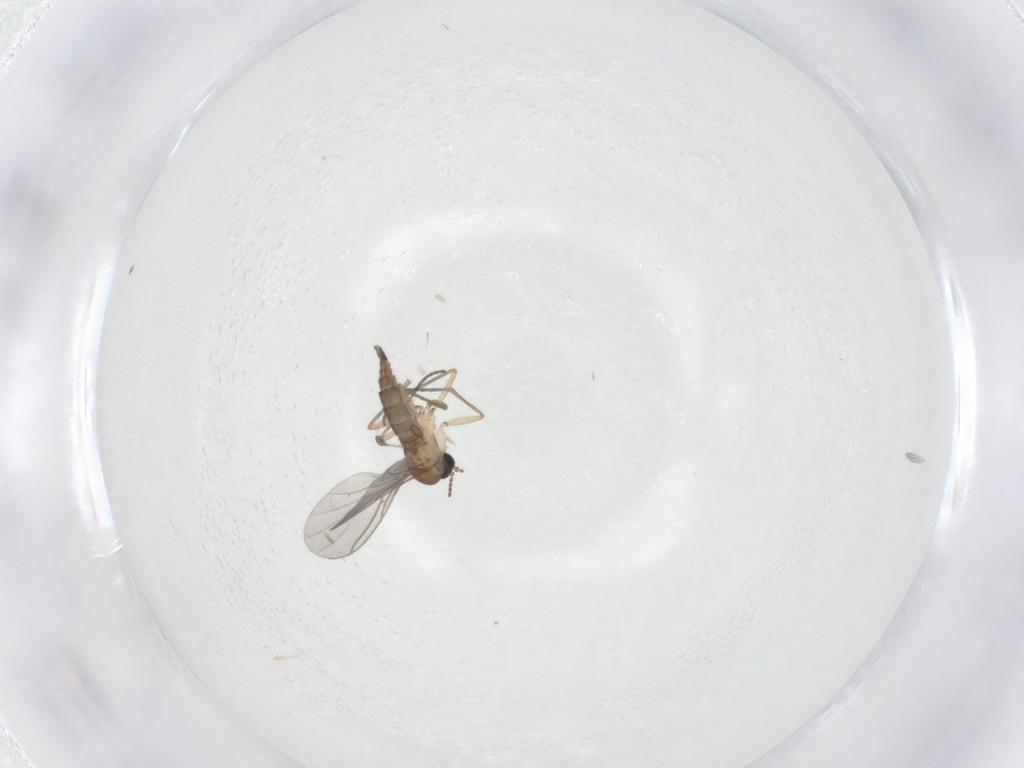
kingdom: Animalia
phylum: Arthropoda
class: Insecta
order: Diptera
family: Sciaridae
